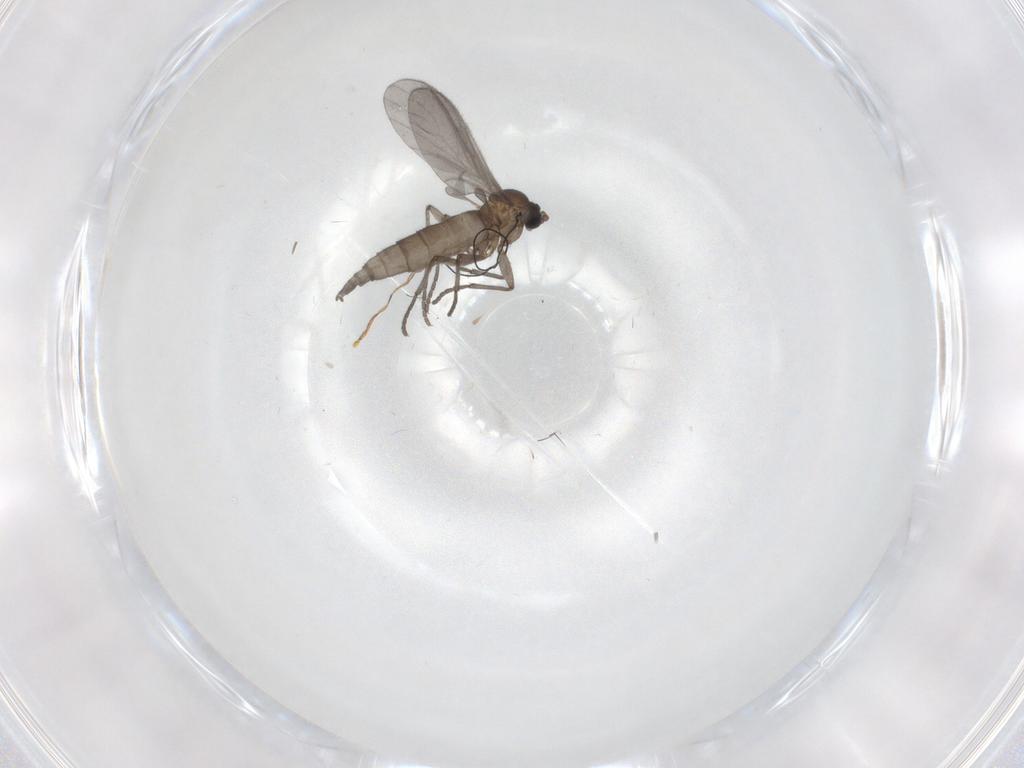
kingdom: Animalia
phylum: Arthropoda
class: Insecta
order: Diptera
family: Sciaridae
